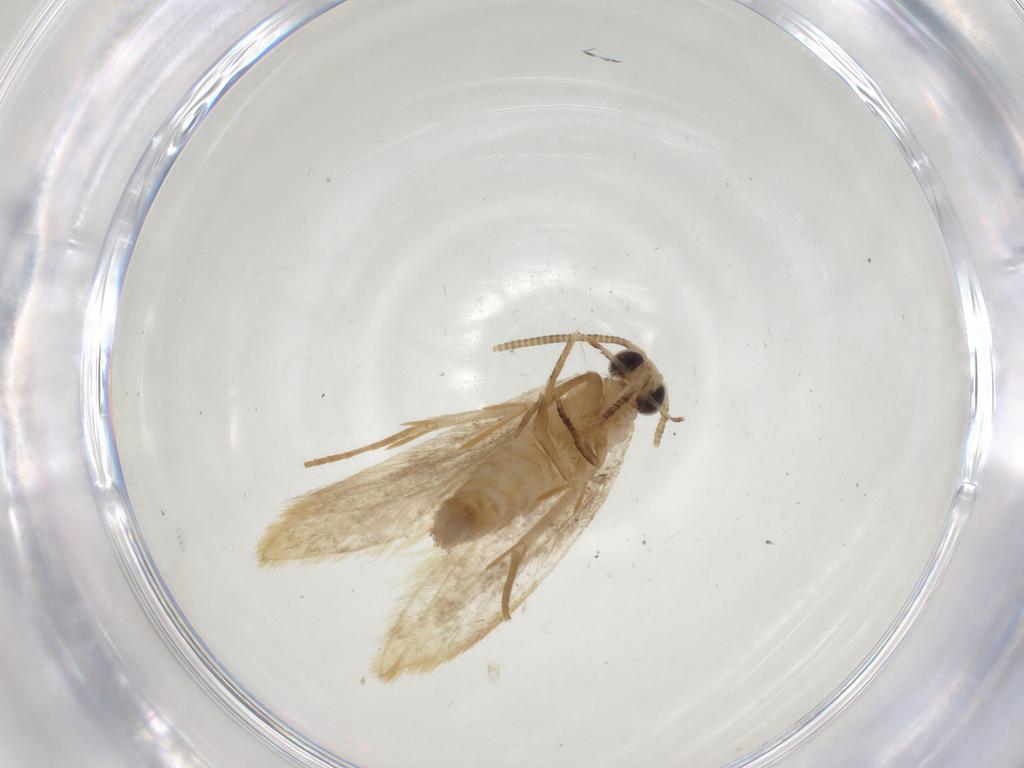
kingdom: Animalia
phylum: Arthropoda
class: Insecta
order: Lepidoptera
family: Tineidae
